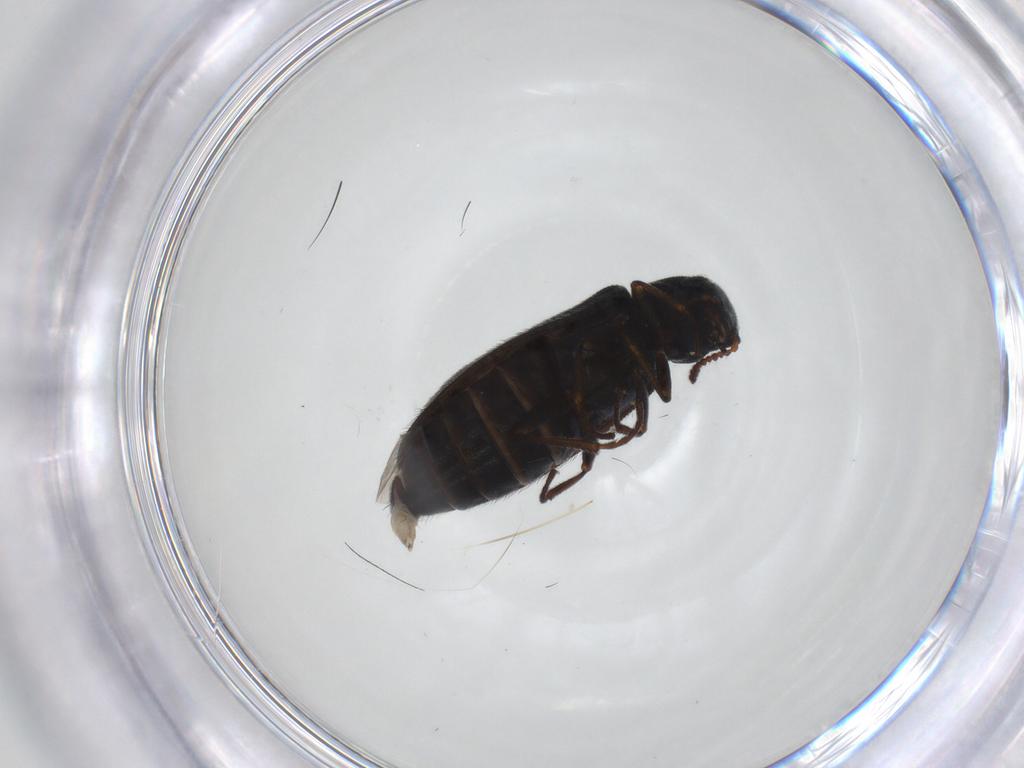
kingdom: Animalia
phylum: Arthropoda
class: Insecta
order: Coleoptera
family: Melyridae
